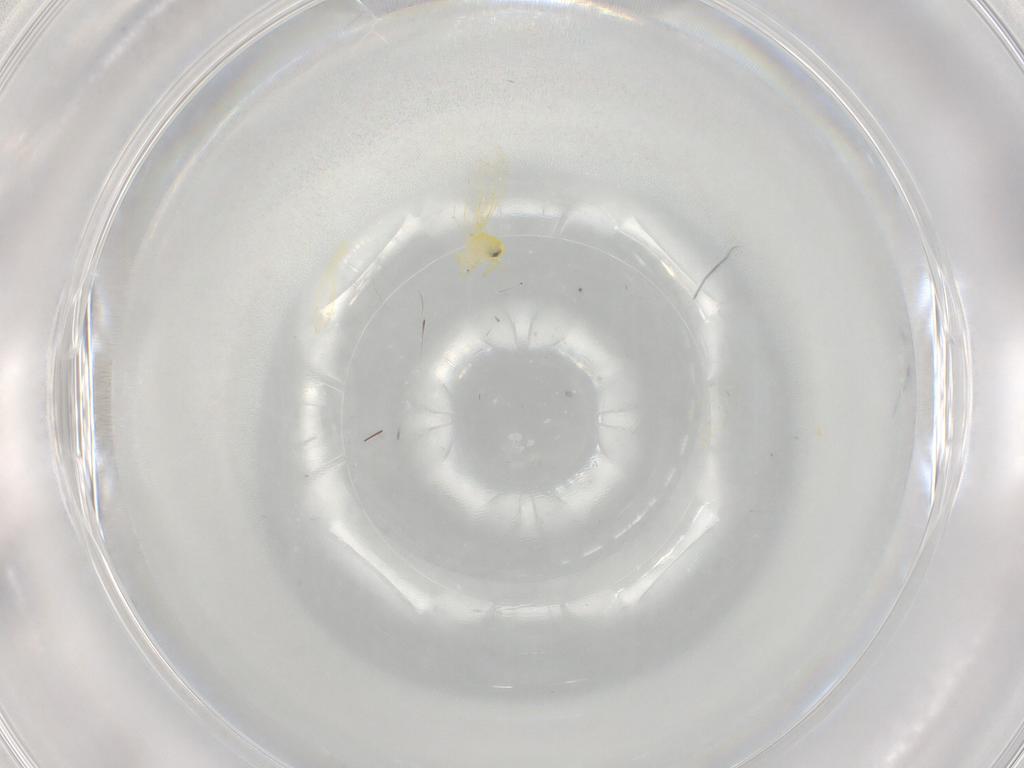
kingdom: Animalia
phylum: Arthropoda
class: Insecta
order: Hemiptera
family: Aleyrodidae
